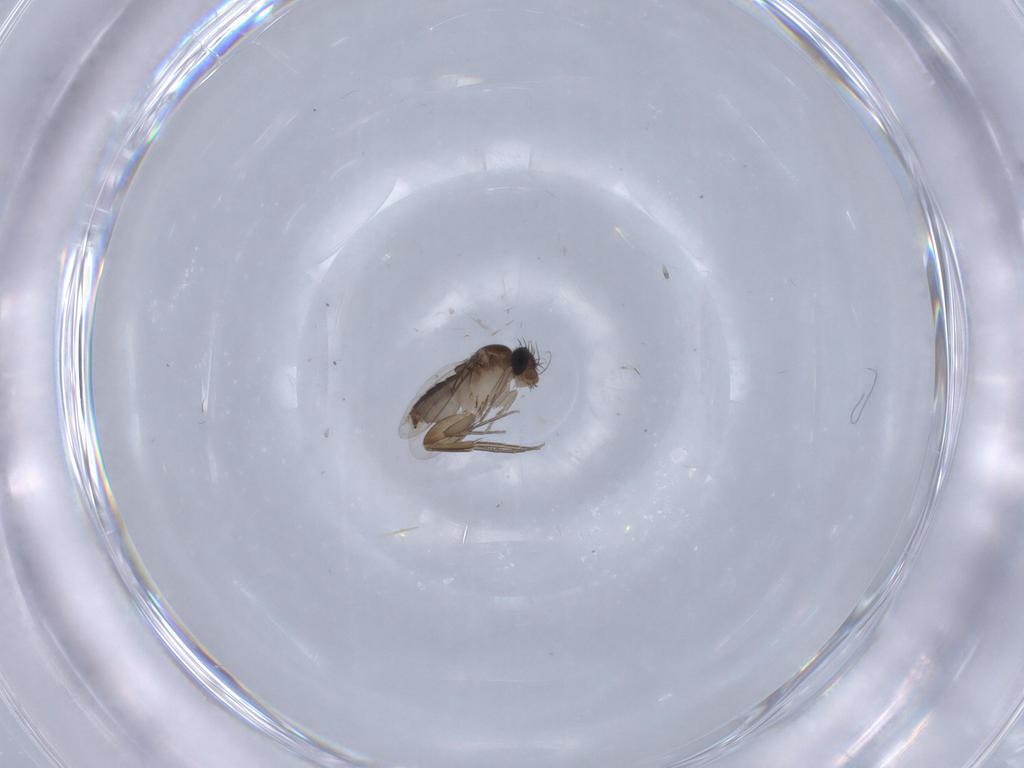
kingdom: Animalia
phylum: Arthropoda
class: Insecta
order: Diptera
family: Phoridae
